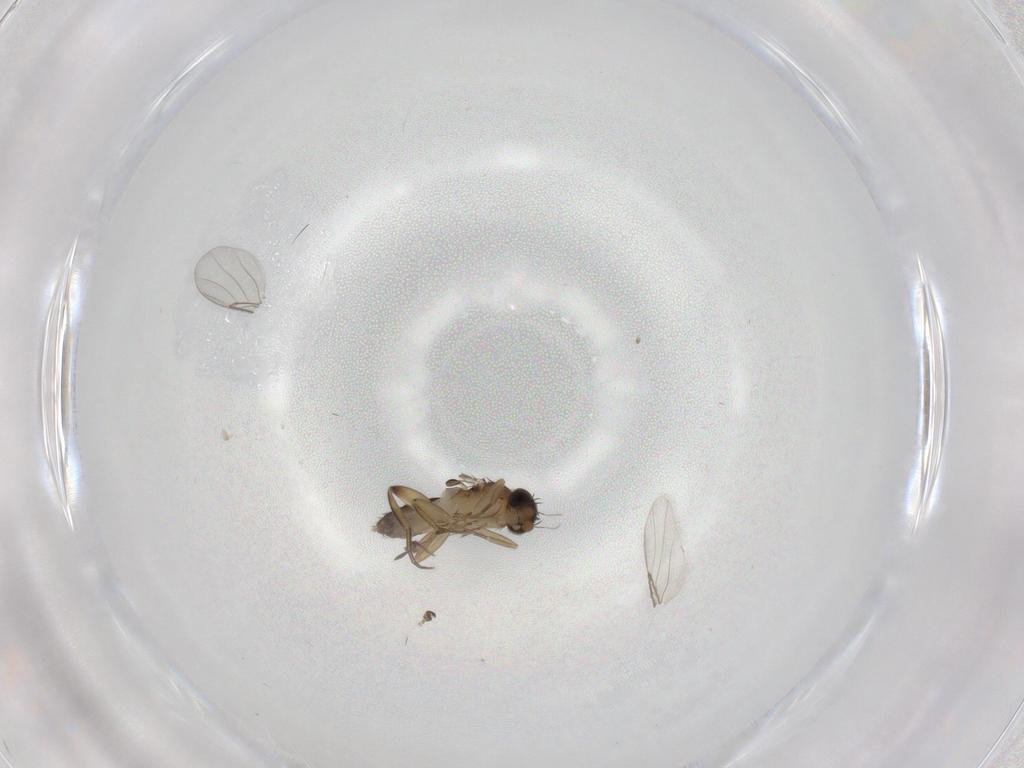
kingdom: Animalia
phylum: Arthropoda
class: Insecta
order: Diptera
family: Phoridae
